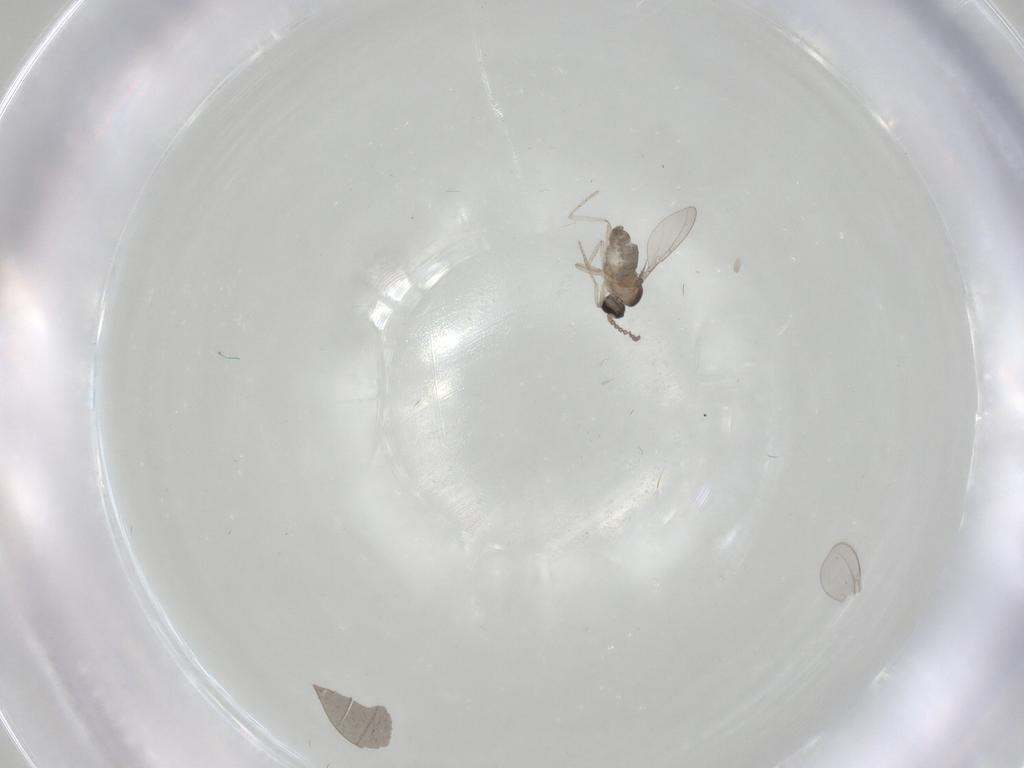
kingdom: Animalia
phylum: Arthropoda
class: Insecta
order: Diptera
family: Cecidomyiidae
